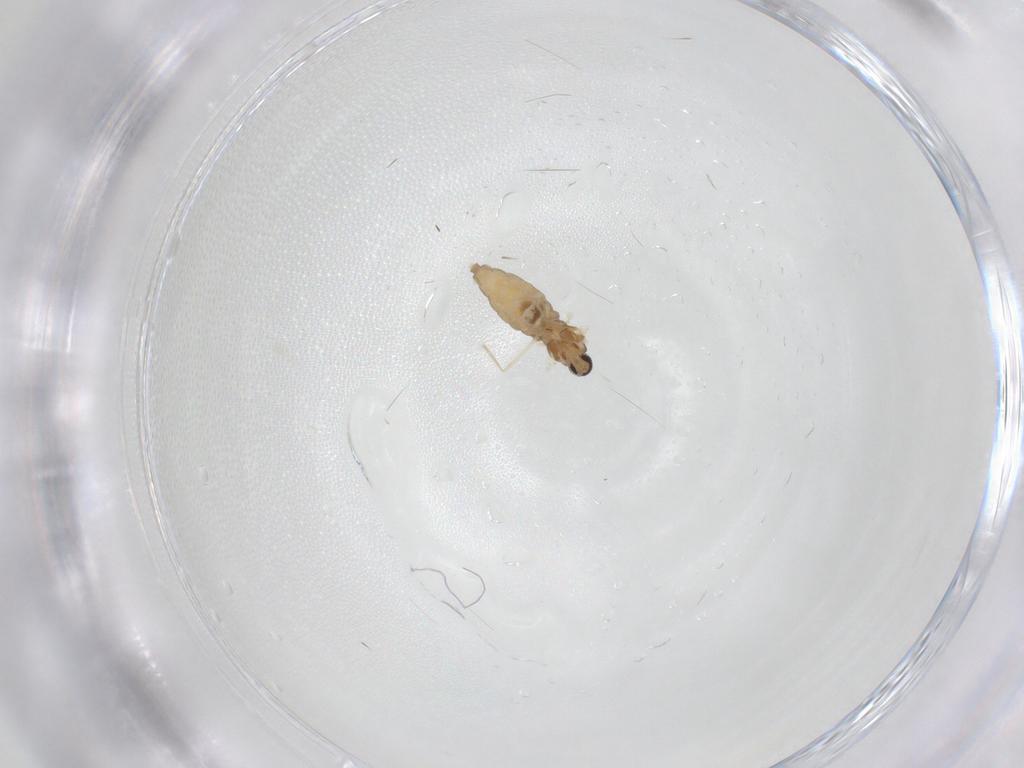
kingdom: Animalia
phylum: Arthropoda
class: Insecta
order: Diptera
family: Cecidomyiidae
